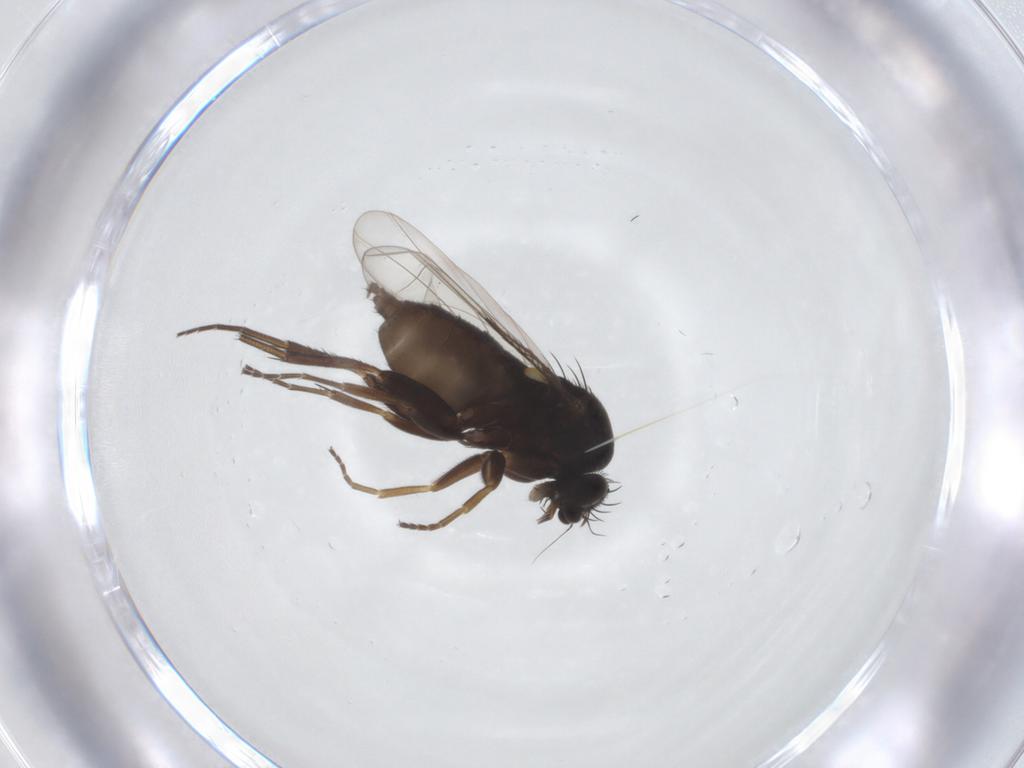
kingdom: Animalia
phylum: Arthropoda
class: Insecta
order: Diptera
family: Phoridae
